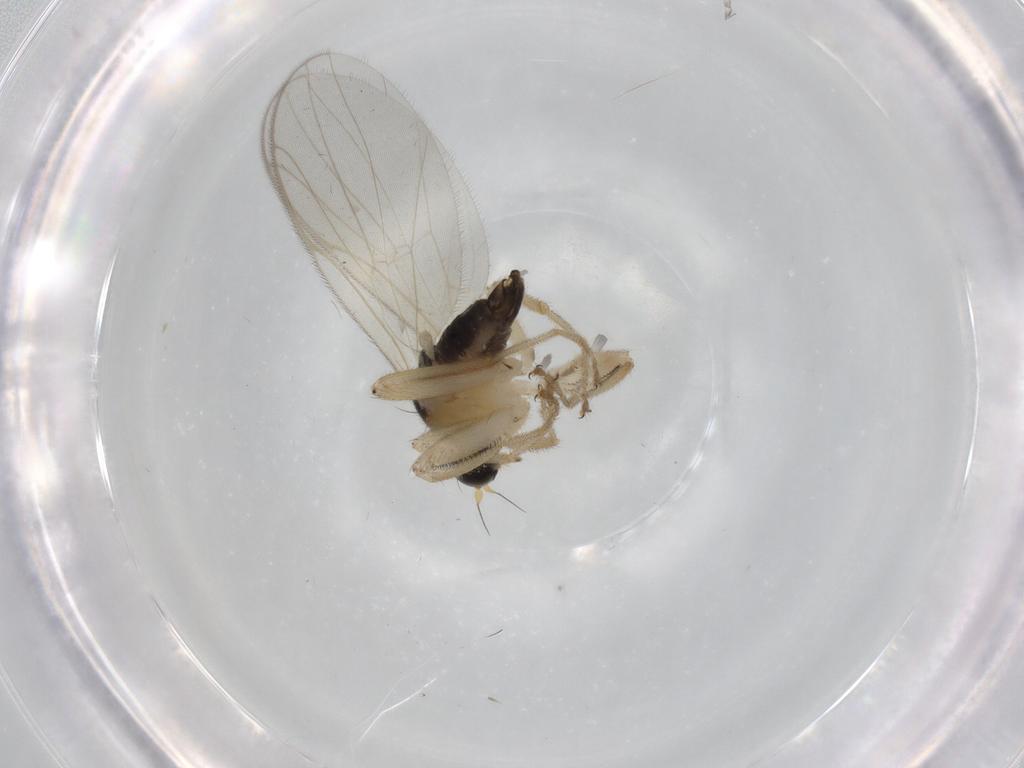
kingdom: Animalia
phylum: Arthropoda
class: Insecta
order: Diptera
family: Hybotidae
